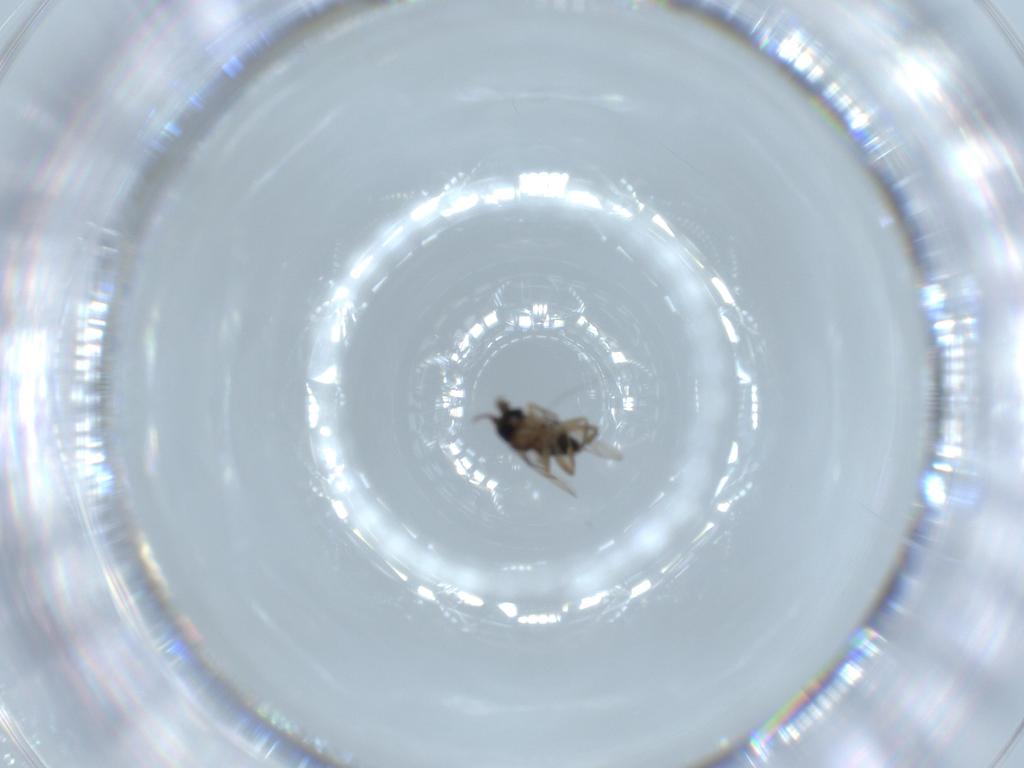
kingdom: Animalia
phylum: Arthropoda
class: Insecta
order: Diptera
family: Phoridae
